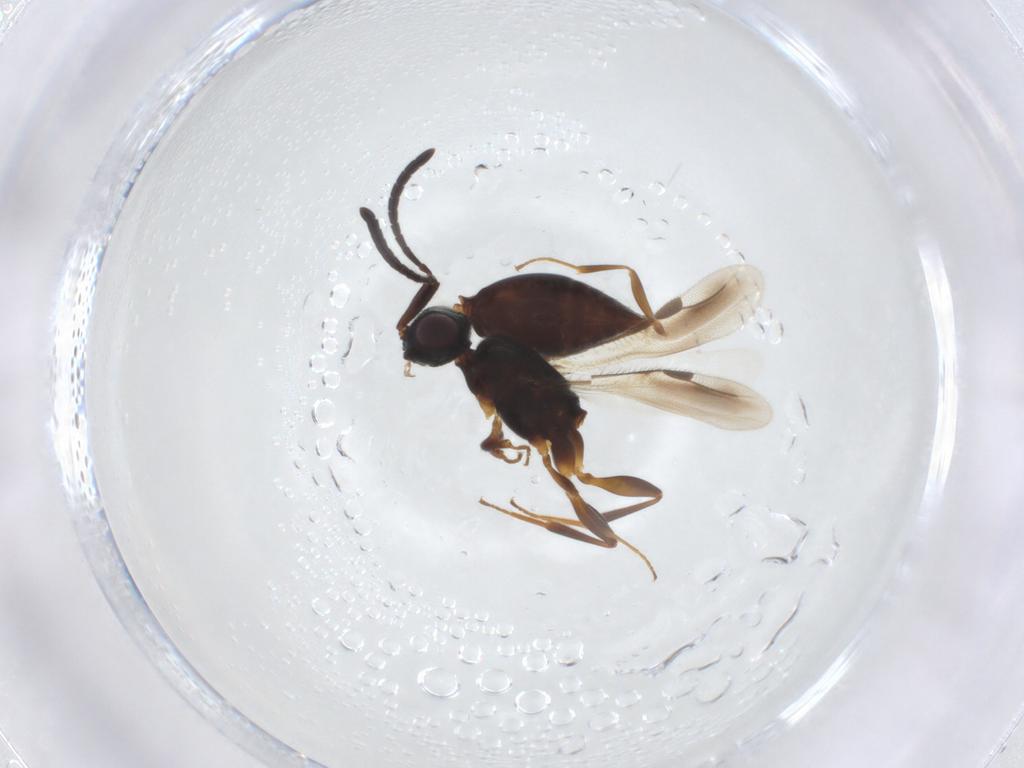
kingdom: Animalia
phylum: Arthropoda
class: Insecta
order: Hymenoptera
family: Megaspilidae
